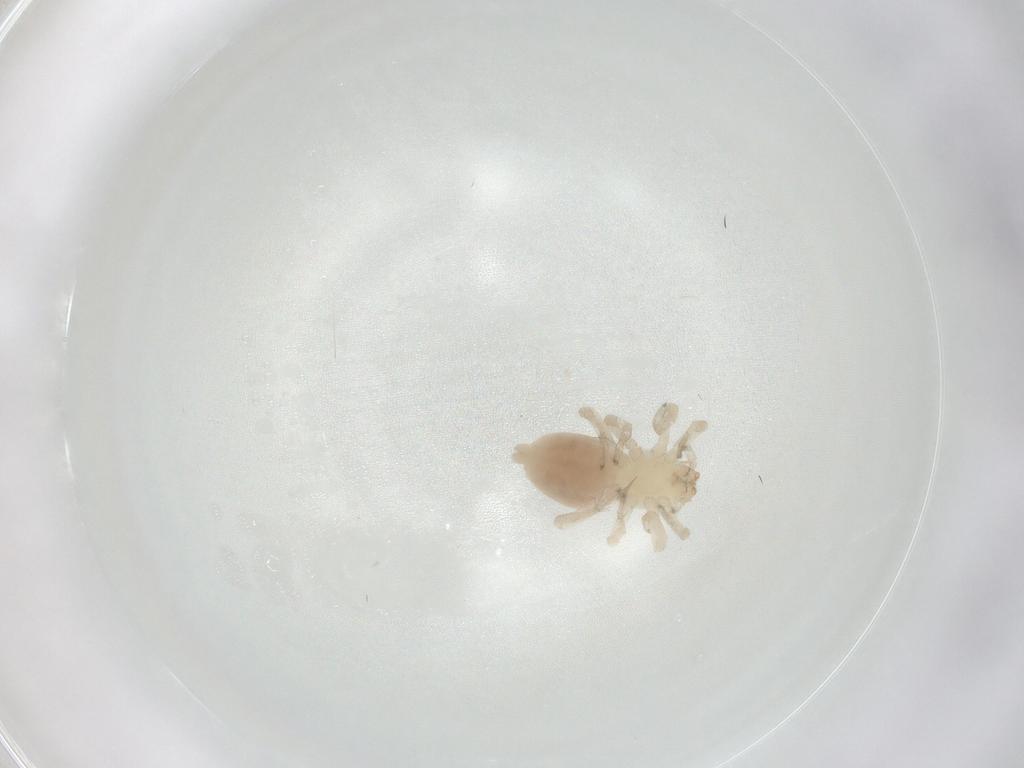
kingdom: Animalia
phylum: Arthropoda
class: Arachnida
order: Araneae
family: Clubionidae
